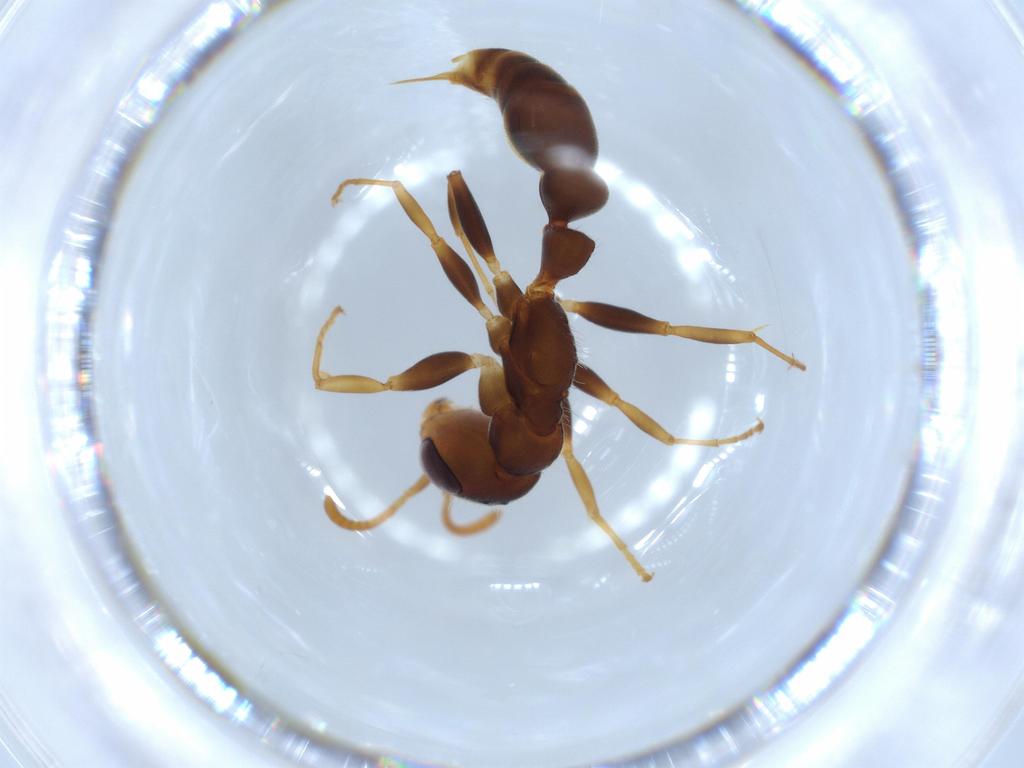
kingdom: Animalia
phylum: Arthropoda
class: Insecta
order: Hymenoptera
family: Formicidae
